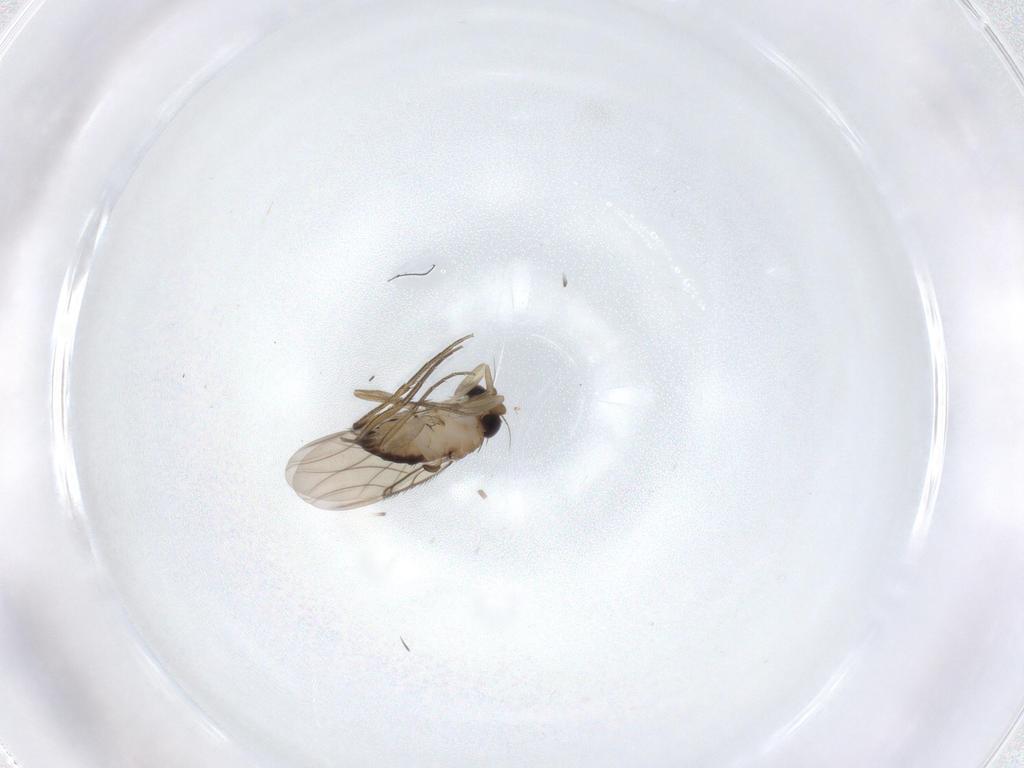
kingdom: Animalia
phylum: Arthropoda
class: Insecta
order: Diptera
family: Phoridae
